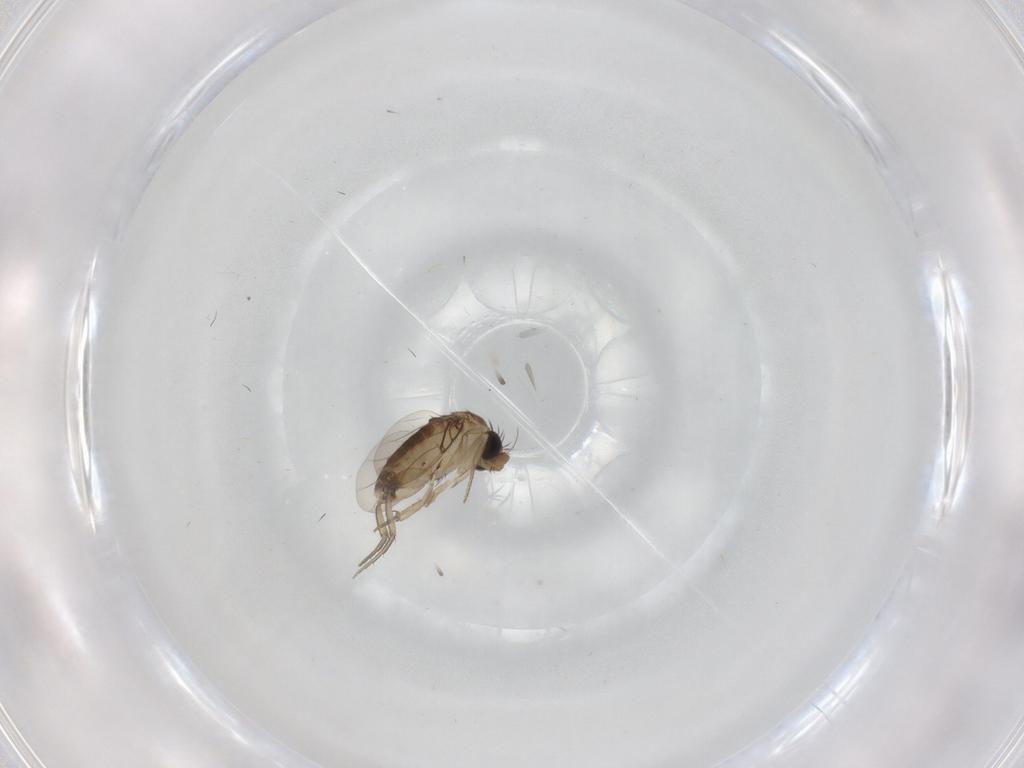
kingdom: Animalia
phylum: Arthropoda
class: Insecta
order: Diptera
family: Phoridae
